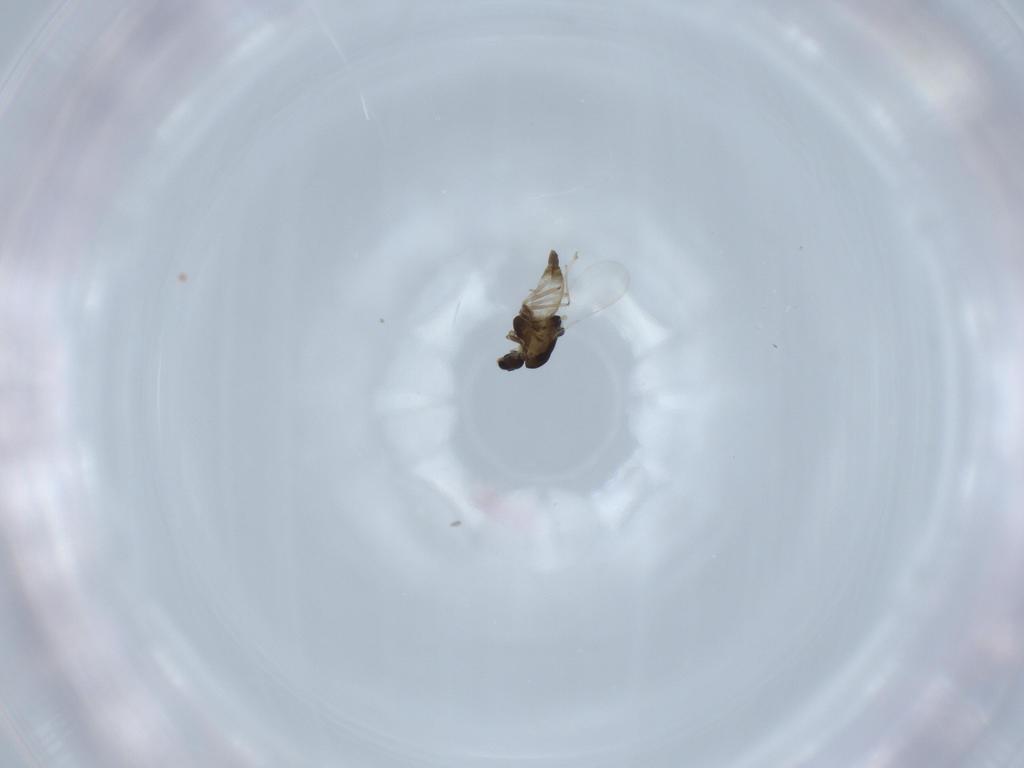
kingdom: Animalia
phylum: Arthropoda
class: Insecta
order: Diptera
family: Chironomidae
